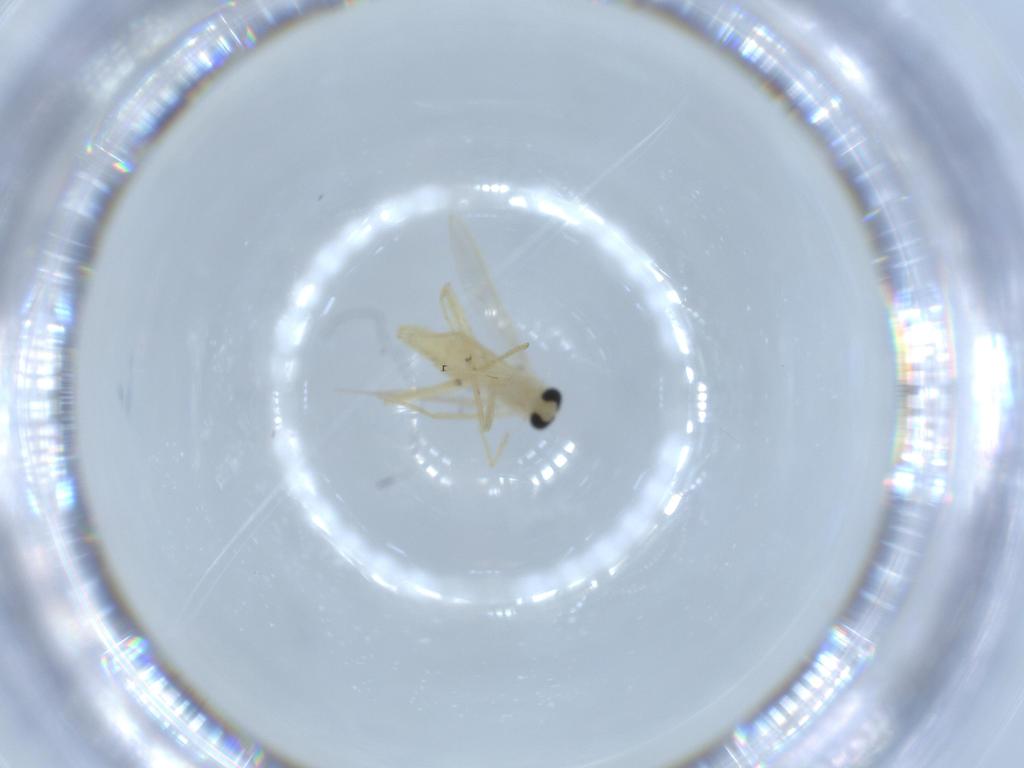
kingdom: Animalia
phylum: Arthropoda
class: Insecta
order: Diptera
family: Chironomidae
